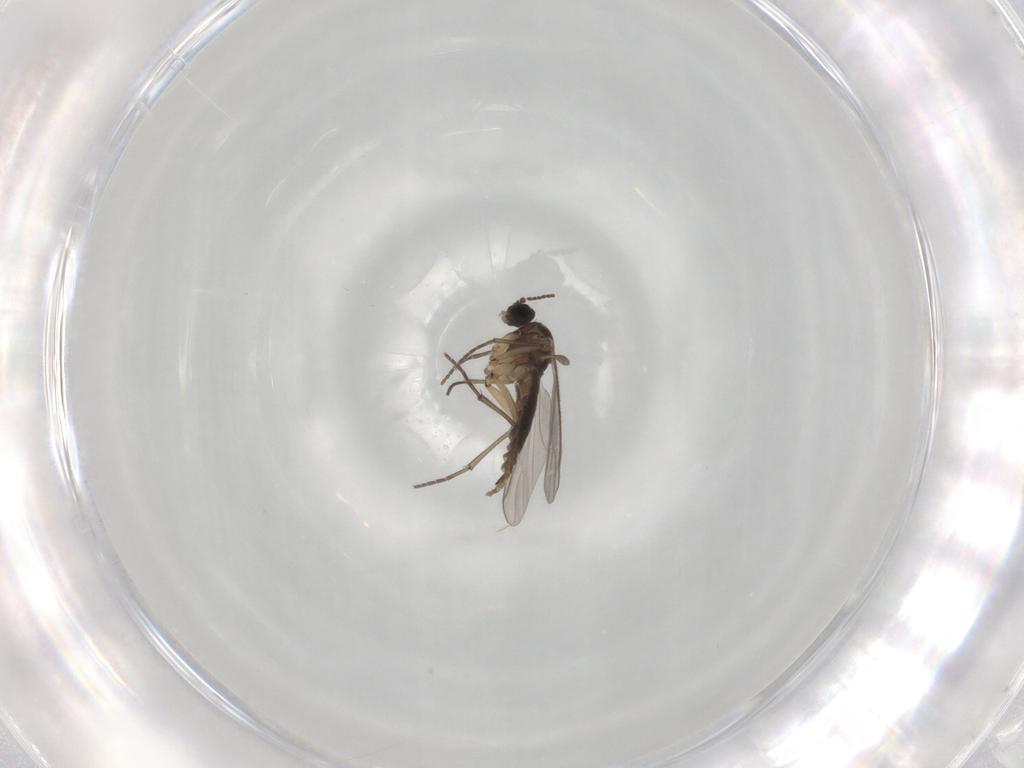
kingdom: Animalia
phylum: Arthropoda
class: Insecta
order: Diptera
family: Sciaridae
